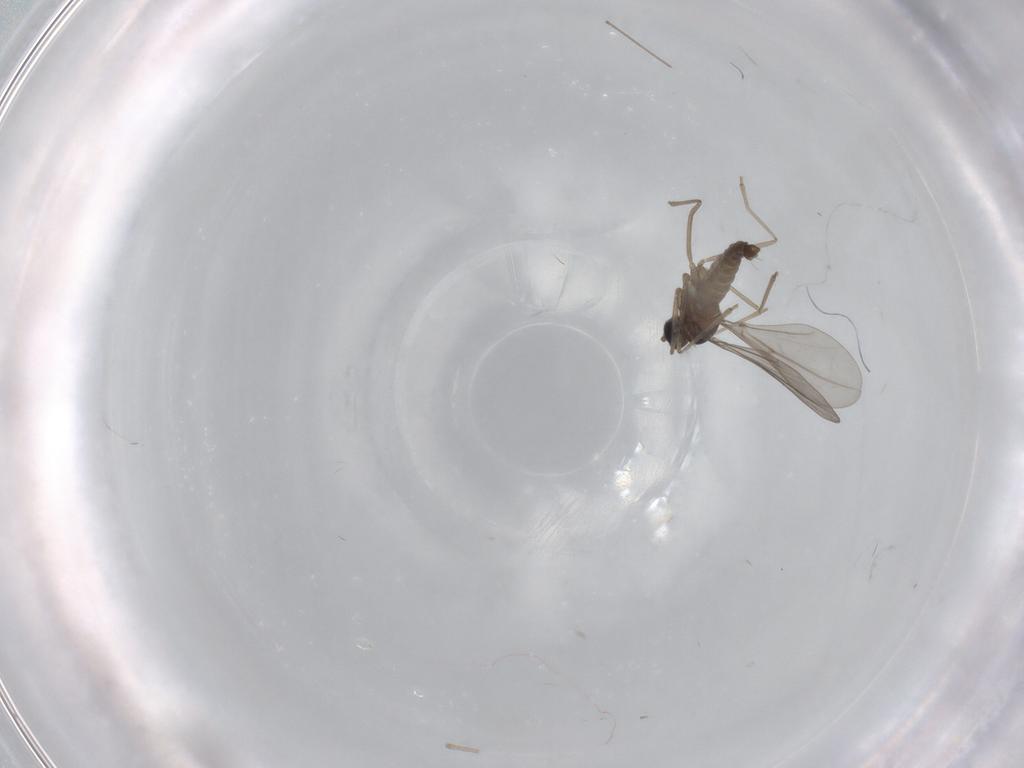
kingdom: Animalia
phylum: Arthropoda
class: Insecta
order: Diptera
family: Cecidomyiidae
